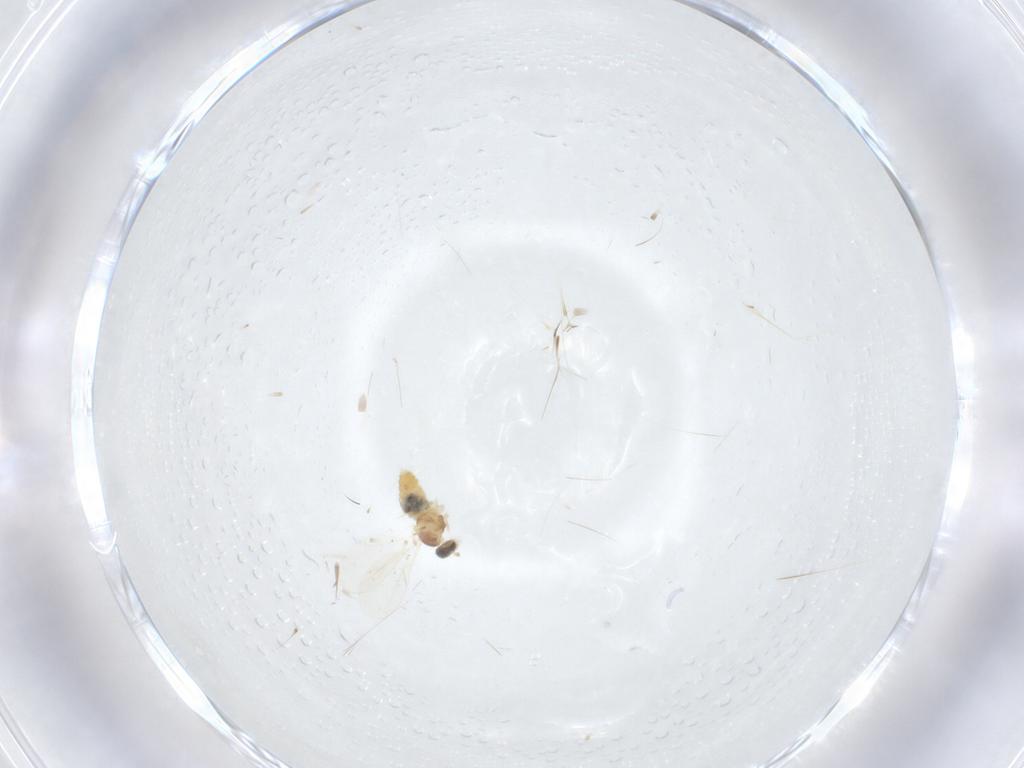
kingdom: Animalia
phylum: Arthropoda
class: Insecta
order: Diptera
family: Cecidomyiidae
